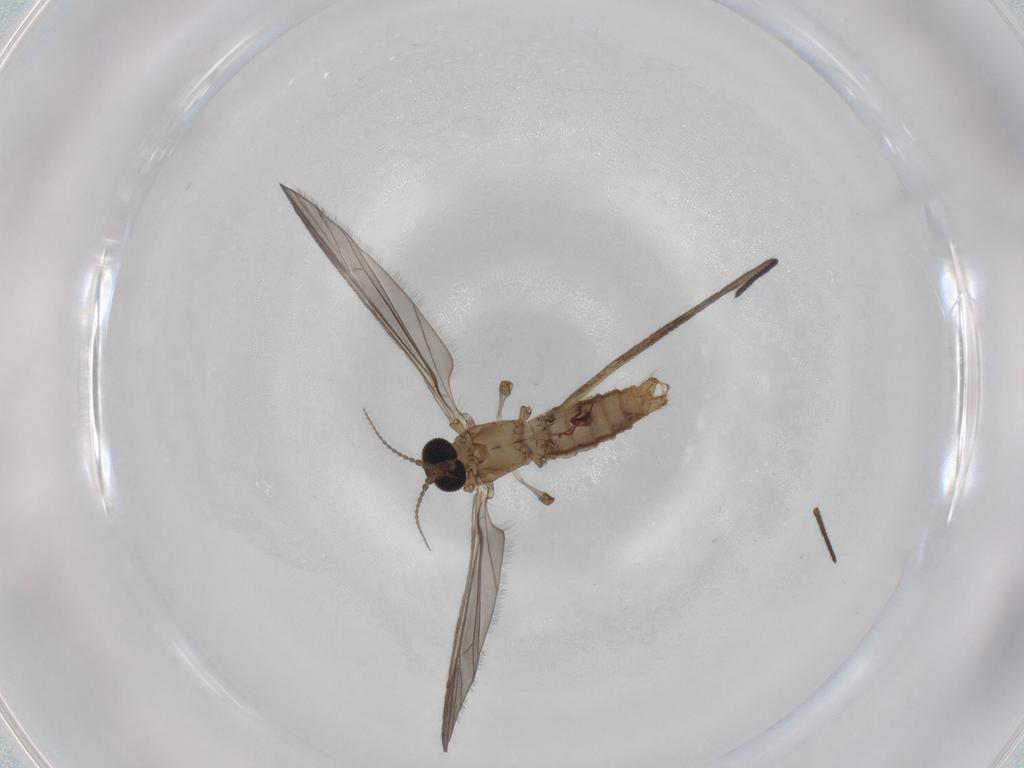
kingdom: Animalia
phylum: Arthropoda
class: Insecta
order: Diptera
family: Limoniidae
